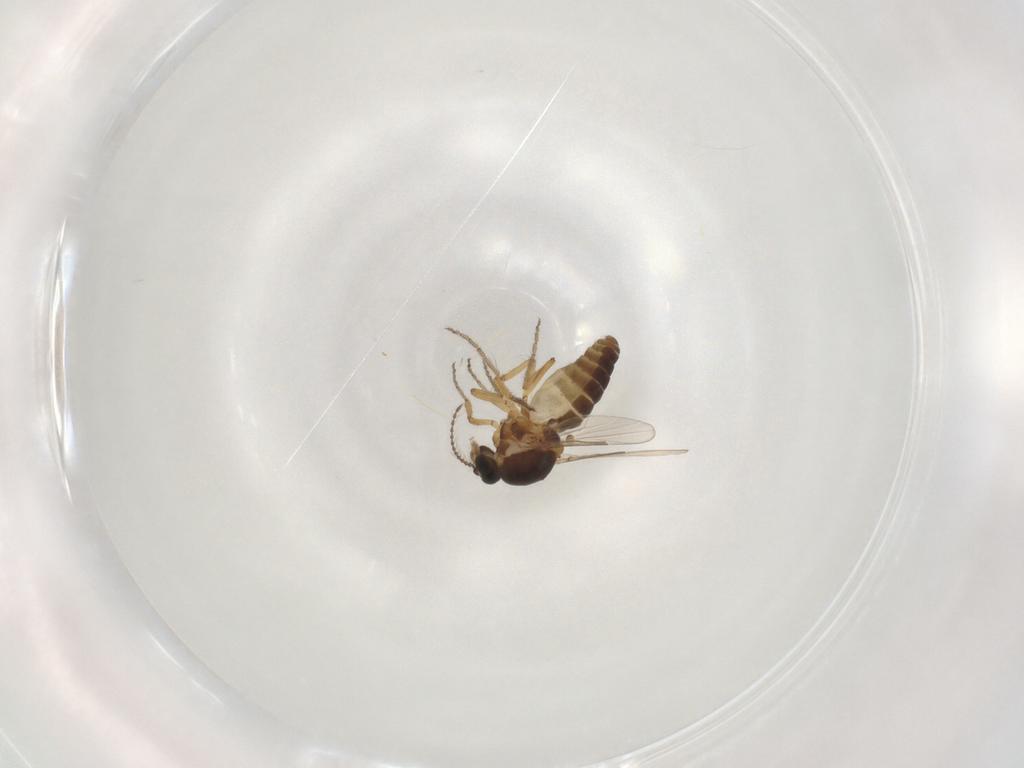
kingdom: Animalia
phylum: Arthropoda
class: Insecta
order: Diptera
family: Ceratopogonidae
